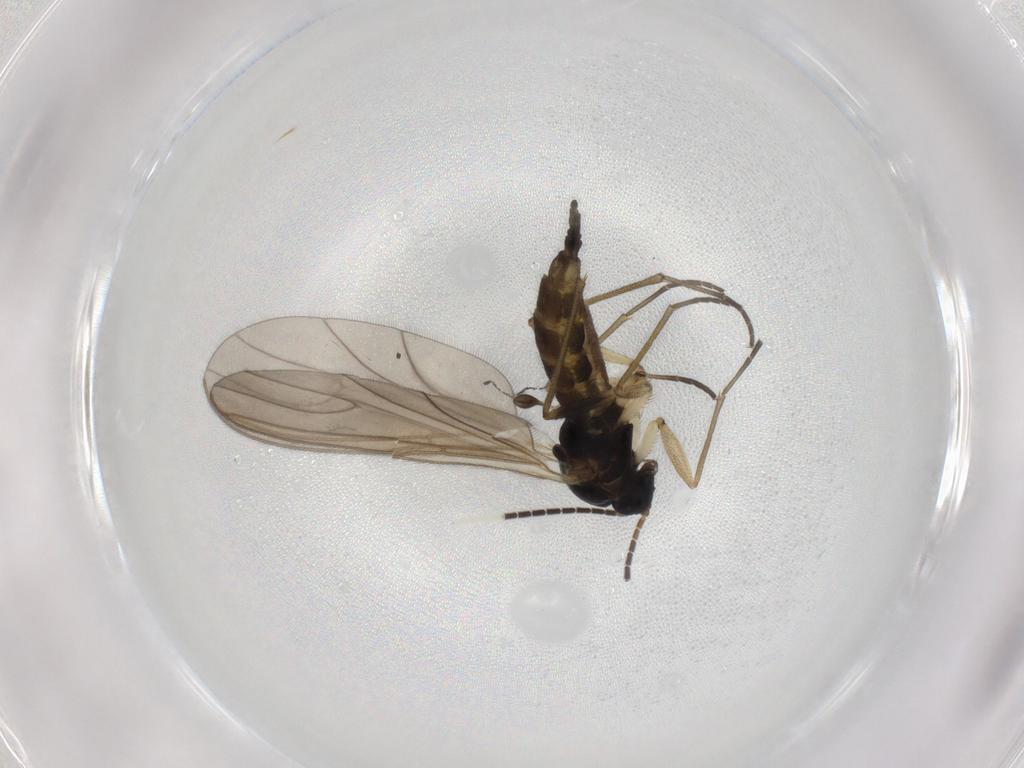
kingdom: Animalia
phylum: Arthropoda
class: Insecta
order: Diptera
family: Sciaridae
